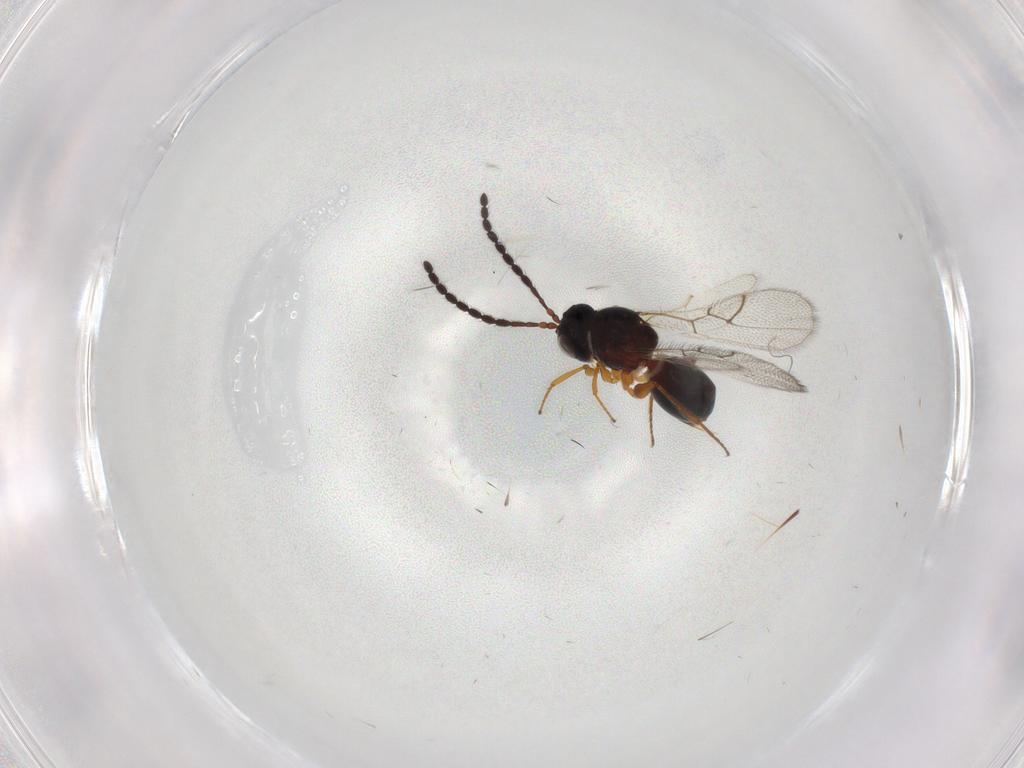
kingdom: Animalia
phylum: Arthropoda
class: Insecta
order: Hymenoptera
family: Figitidae
